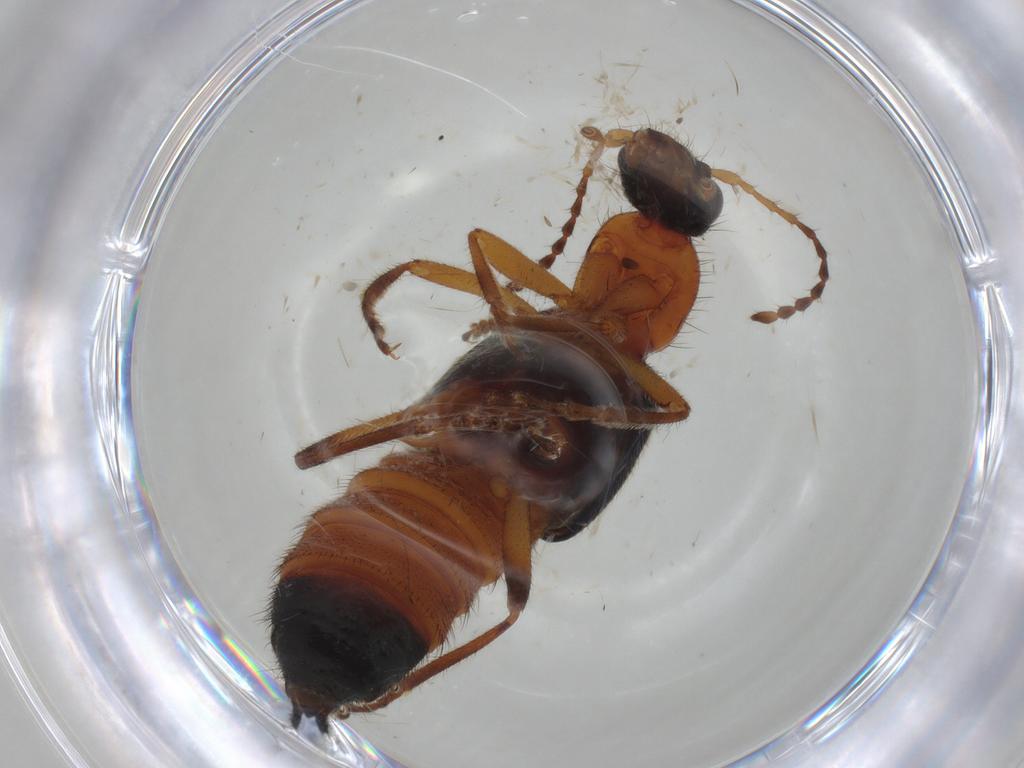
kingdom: Animalia
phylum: Arthropoda
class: Insecta
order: Coleoptera
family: Staphylinidae
